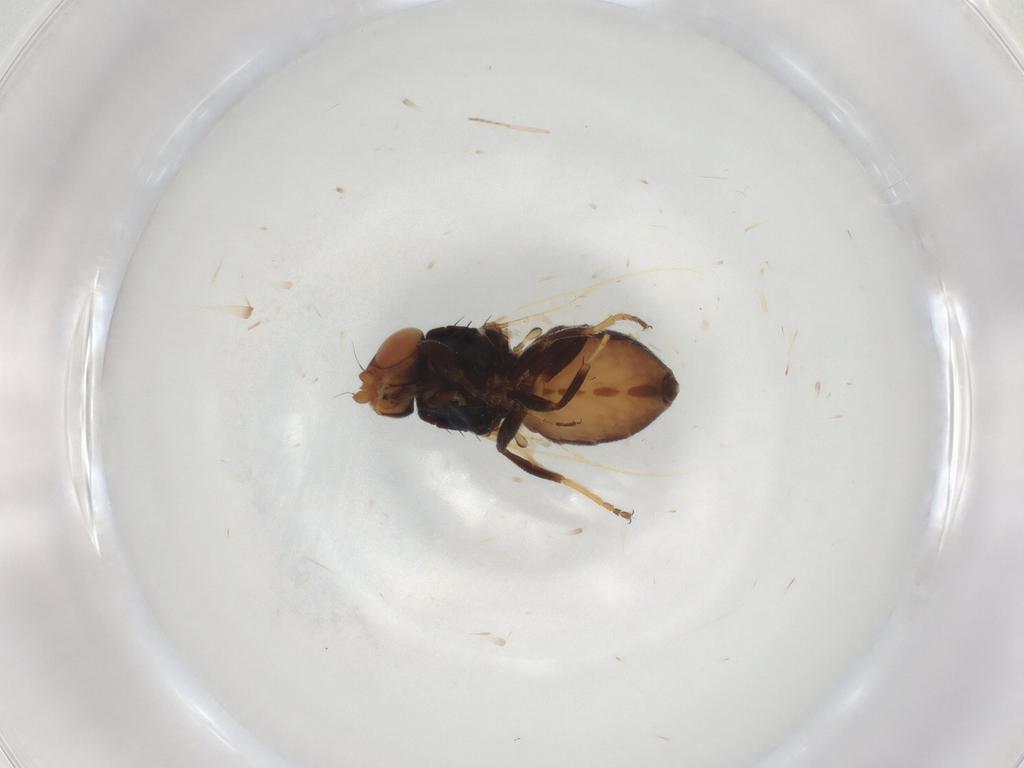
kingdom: Animalia
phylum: Arthropoda
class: Insecta
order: Diptera
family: Chloropidae
